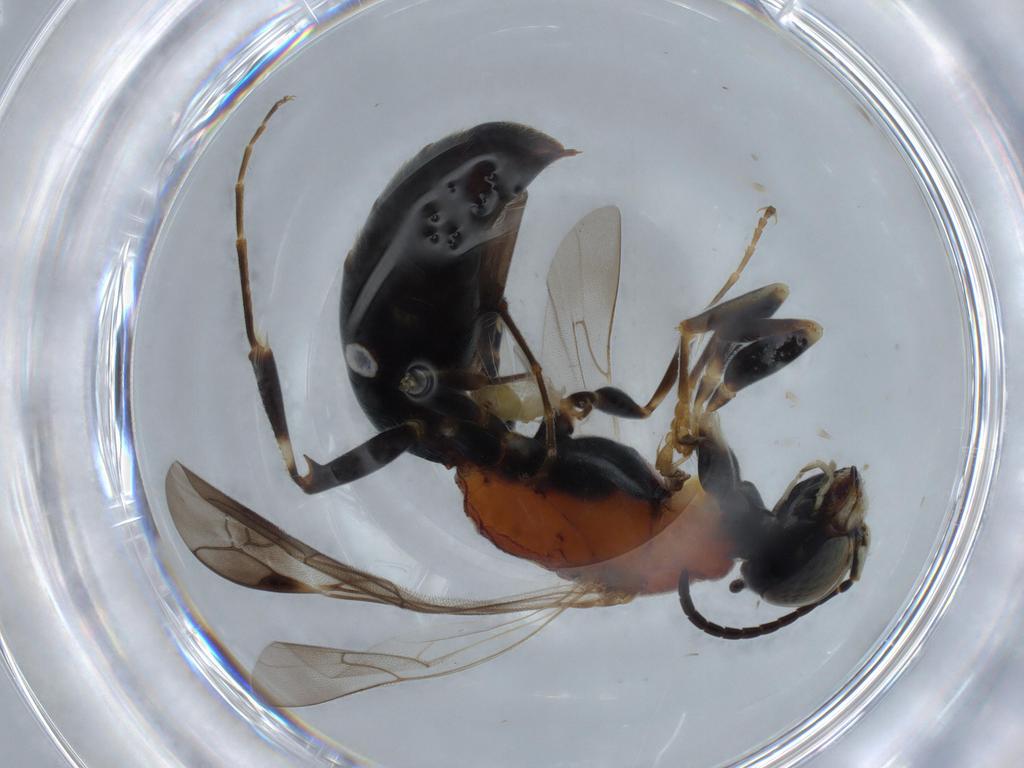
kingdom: Animalia
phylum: Arthropoda
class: Insecta
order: Hymenoptera
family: Bembicidae
